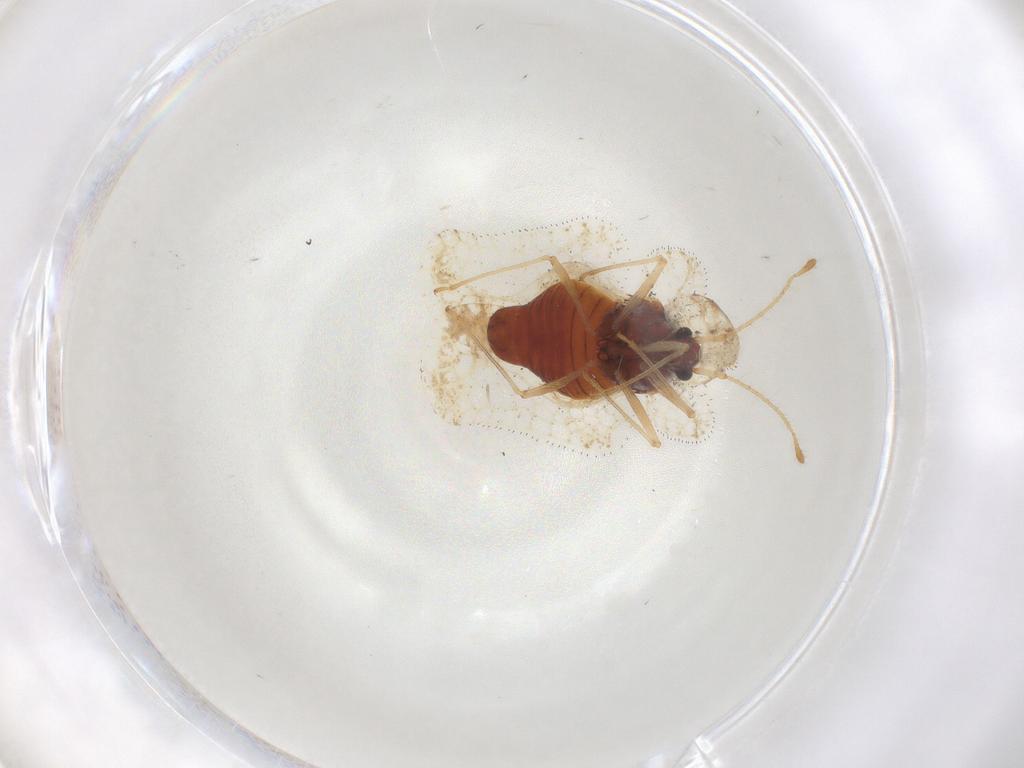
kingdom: Animalia
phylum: Arthropoda
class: Insecta
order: Hemiptera
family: Tingidae
